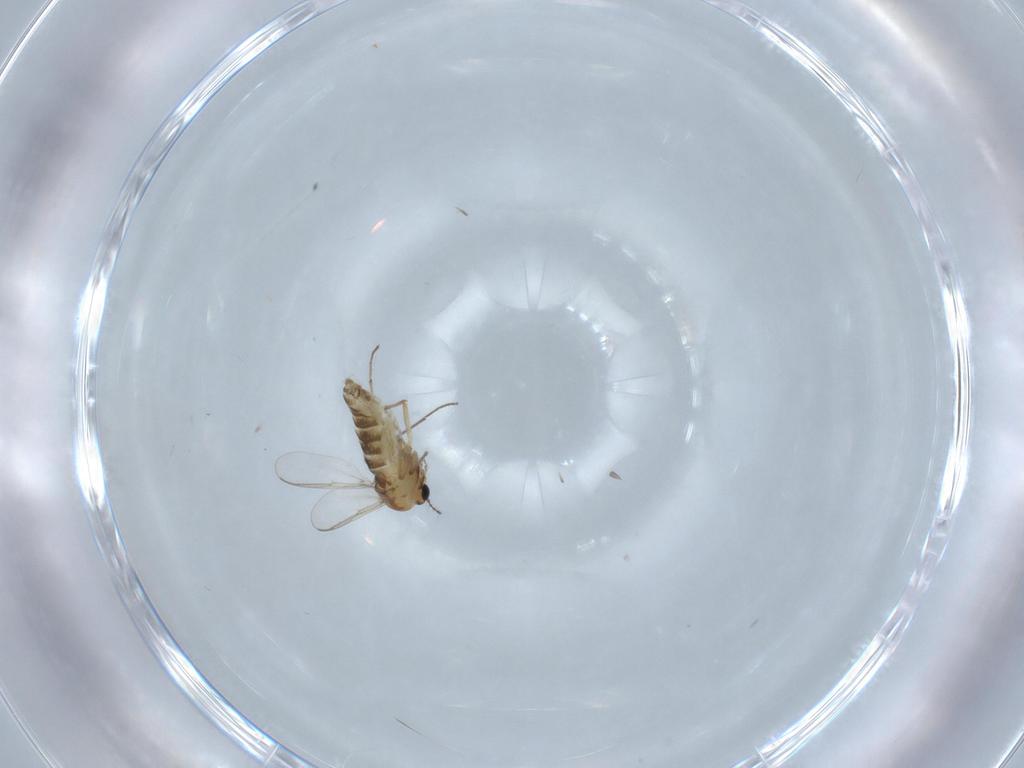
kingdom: Animalia
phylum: Arthropoda
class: Insecta
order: Diptera
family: Chironomidae
